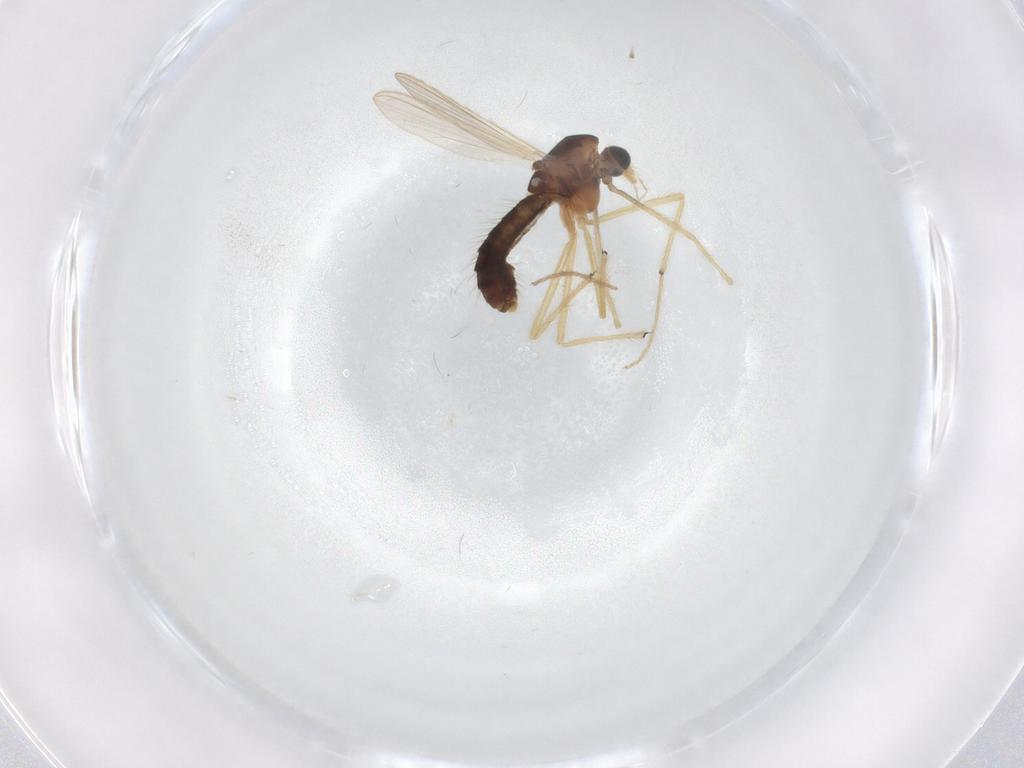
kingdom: Animalia
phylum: Arthropoda
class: Insecta
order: Diptera
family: Chironomidae
